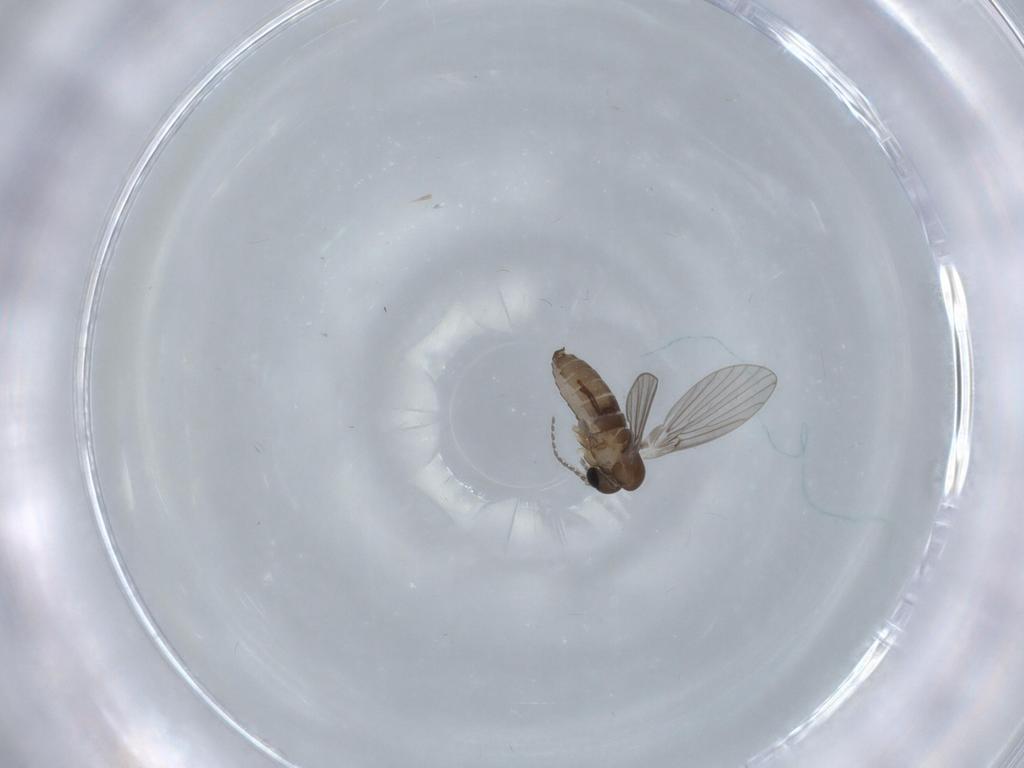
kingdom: Animalia
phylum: Arthropoda
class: Insecta
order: Diptera
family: Psychodidae
